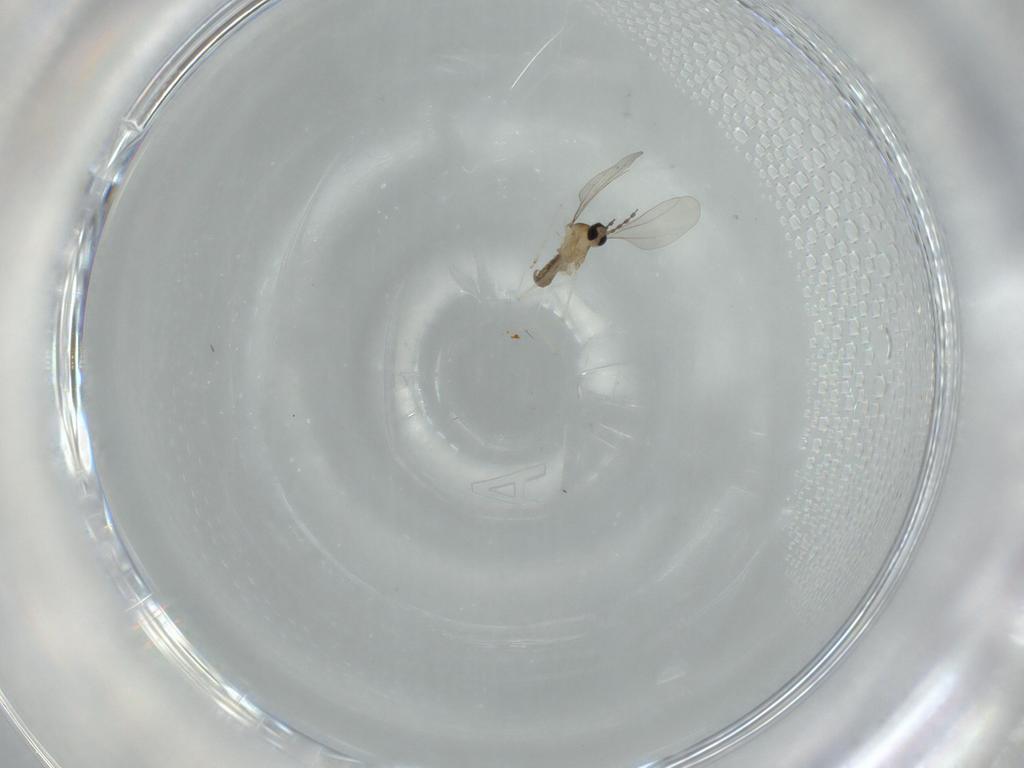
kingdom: Animalia
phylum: Arthropoda
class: Insecta
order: Diptera
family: Cecidomyiidae
